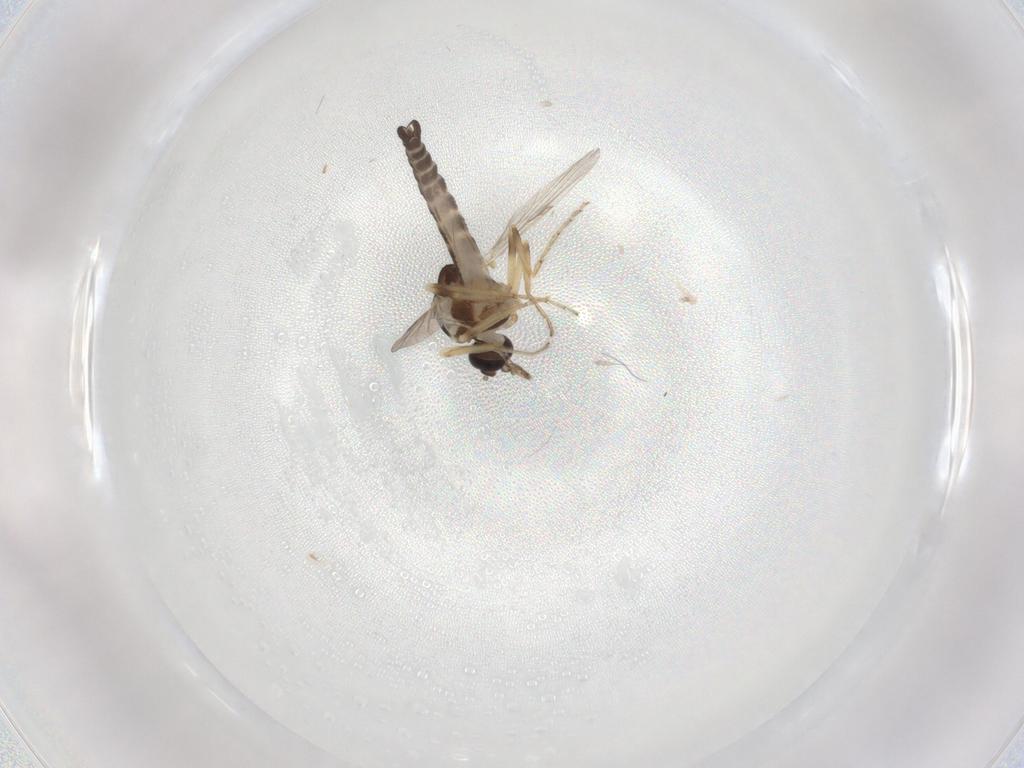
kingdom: Animalia
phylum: Arthropoda
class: Insecta
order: Diptera
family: Ceratopogonidae
